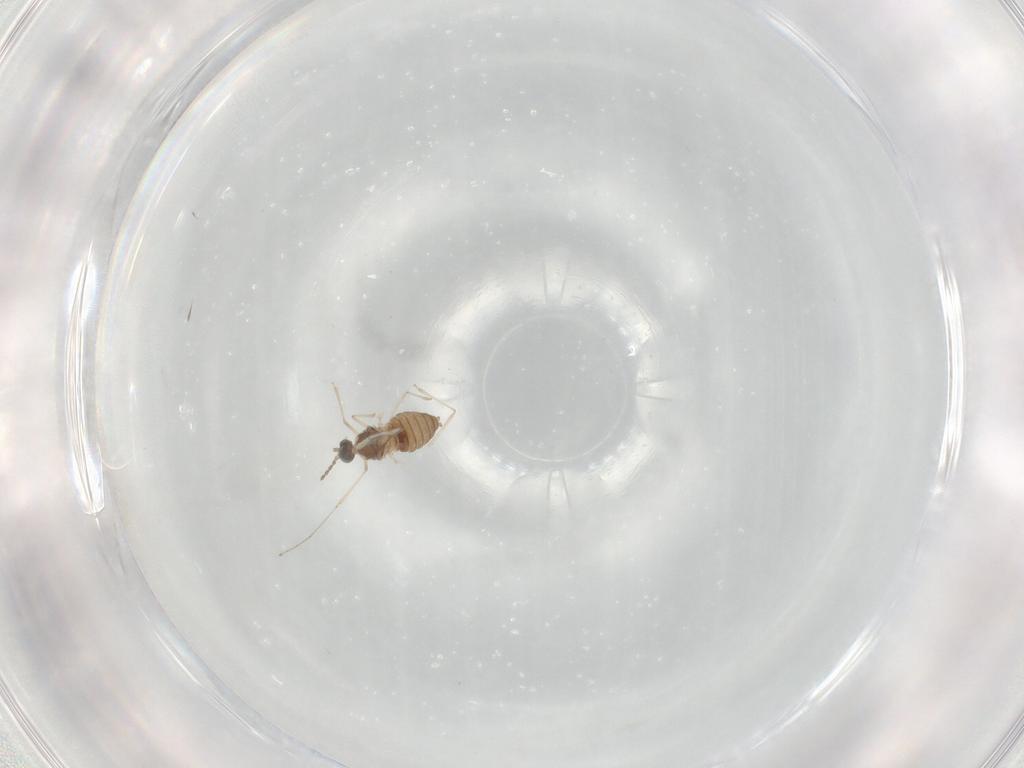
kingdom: Animalia
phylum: Arthropoda
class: Insecta
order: Diptera
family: Cecidomyiidae
